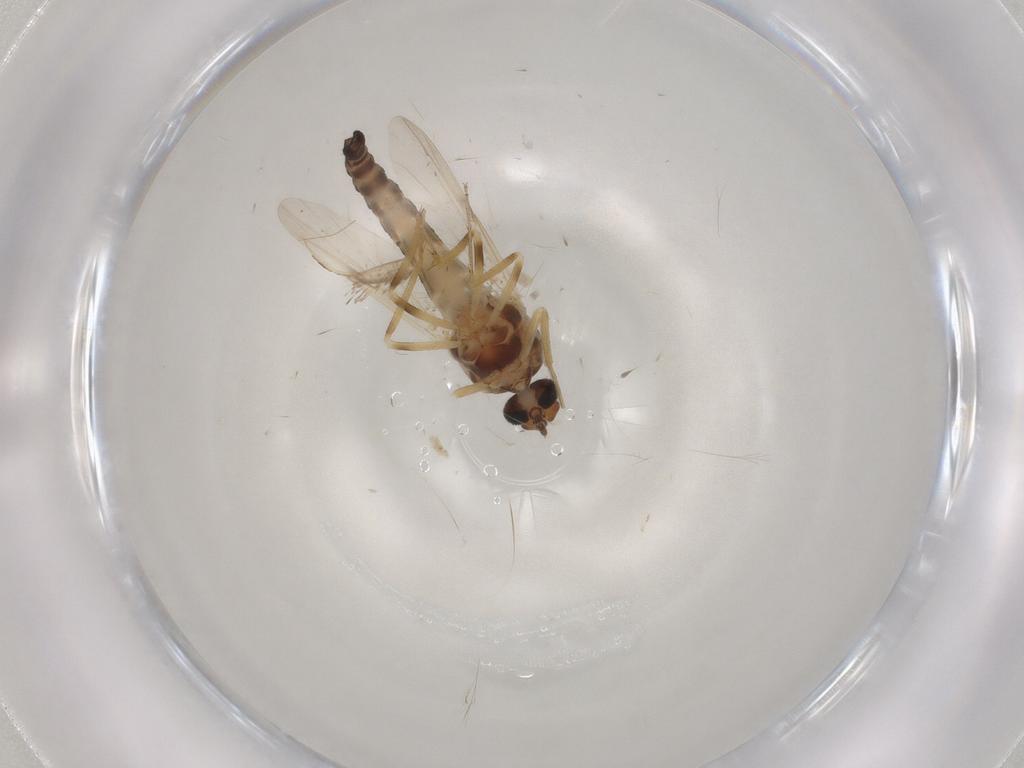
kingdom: Animalia
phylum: Arthropoda
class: Insecta
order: Diptera
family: Ceratopogonidae
